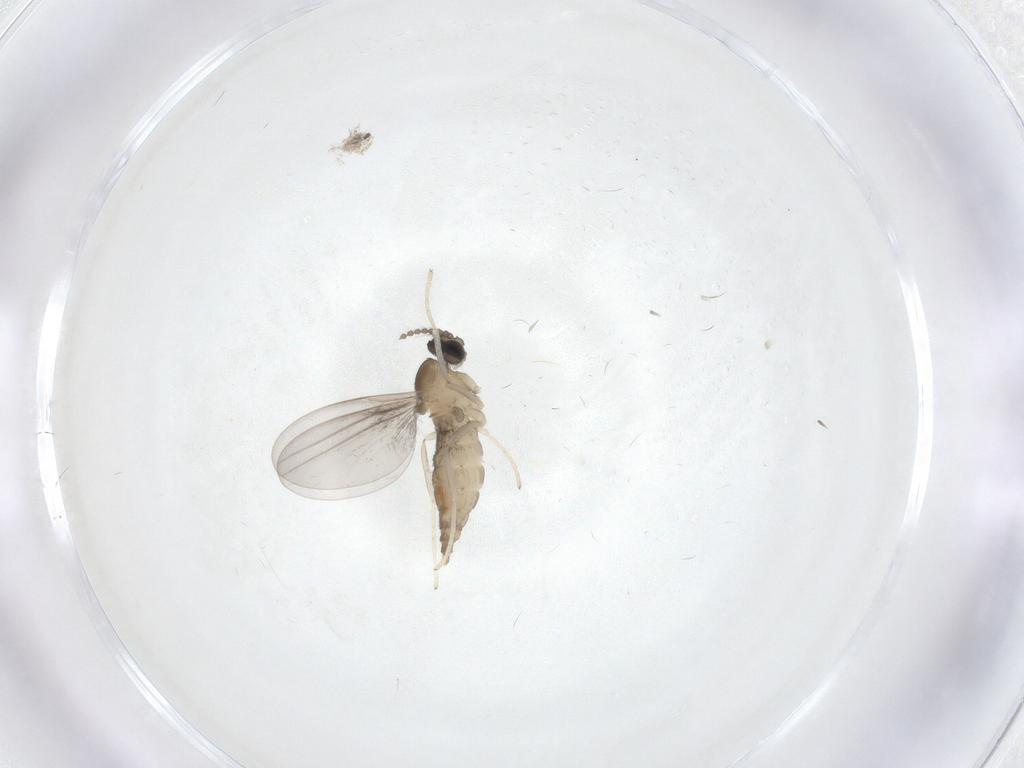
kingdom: Animalia
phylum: Arthropoda
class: Insecta
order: Diptera
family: Cecidomyiidae
